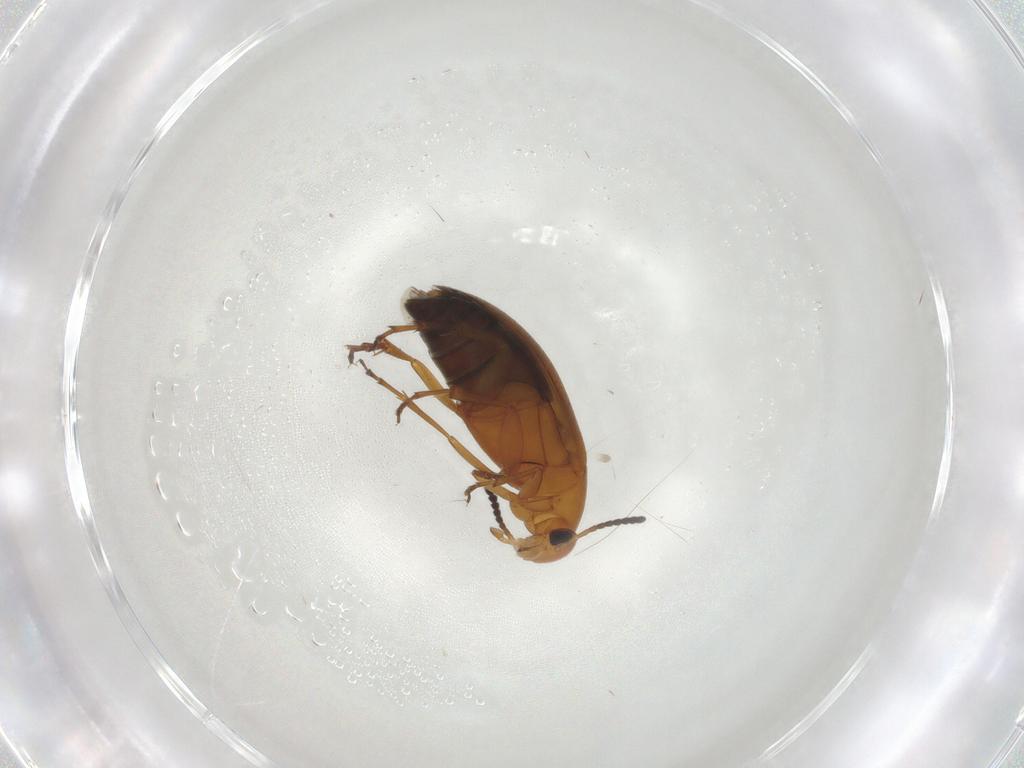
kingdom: Animalia
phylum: Arthropoda
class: Insecta
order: Coleoptera
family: Scraptiidae
